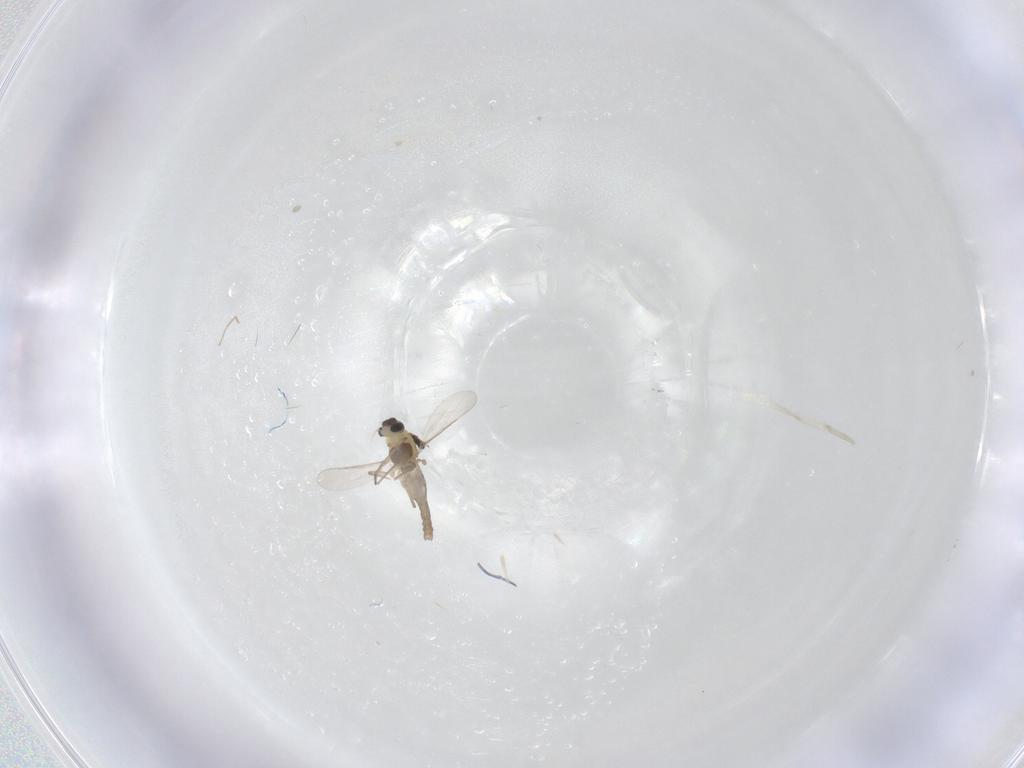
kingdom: Animalia
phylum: Arthropoda
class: Insecta
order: Diptera
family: Chironomidae
